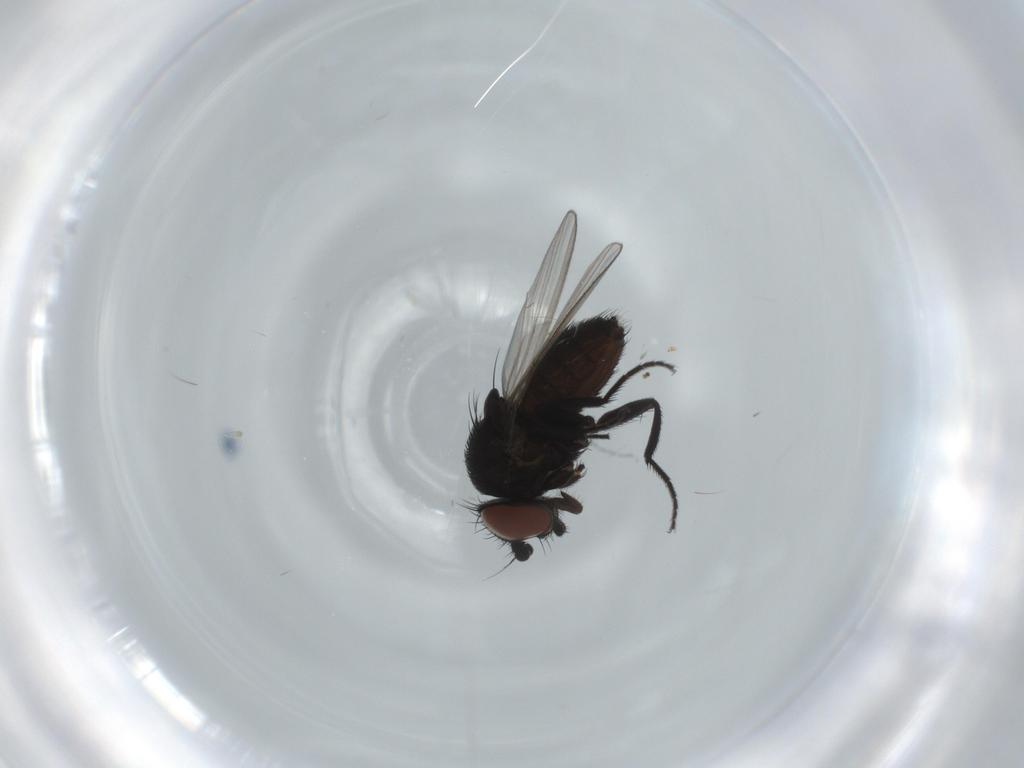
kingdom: Animalia
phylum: Arthropoda
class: Insecta
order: Diptera
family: Milichiidae
